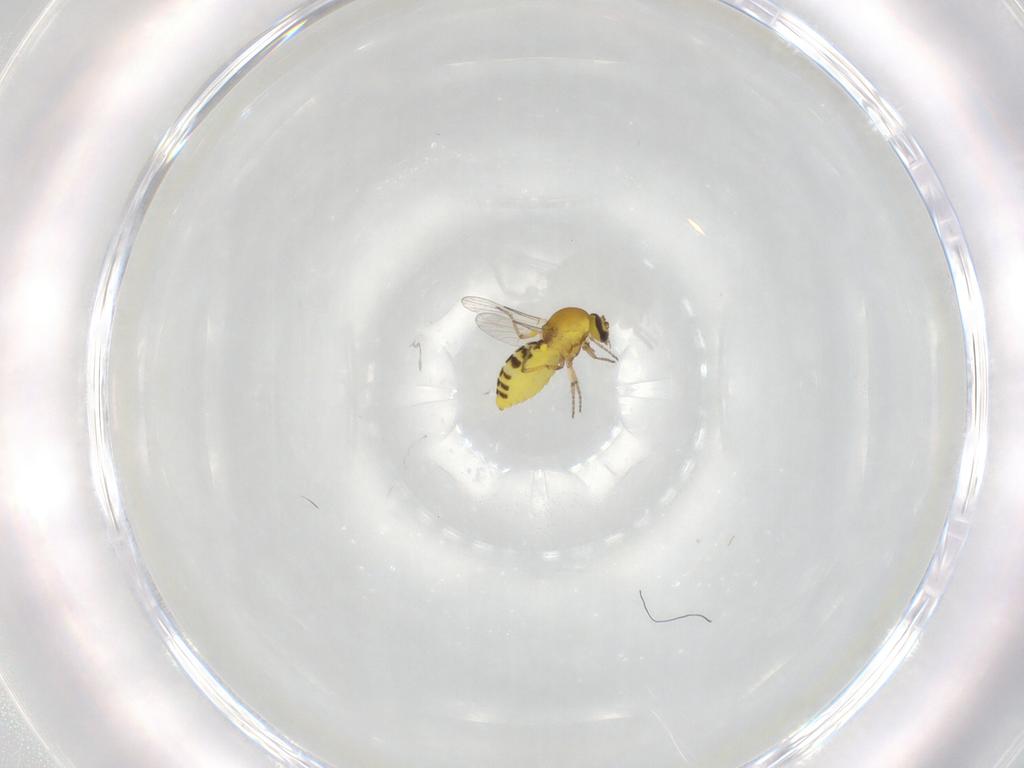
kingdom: Animalia
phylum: Arthropoda
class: Insecta
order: Diptera
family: Ceratopogonidae
